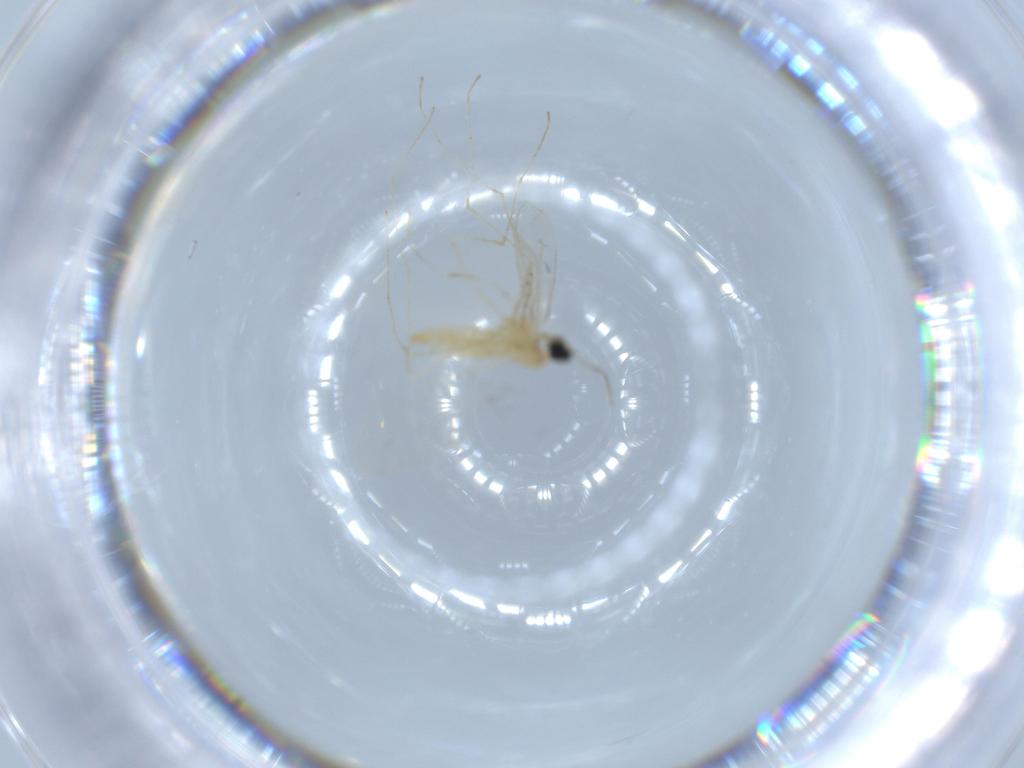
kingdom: Animalia
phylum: Arthropoda
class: Insecta
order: Diptera
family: Cecidomyiidae
